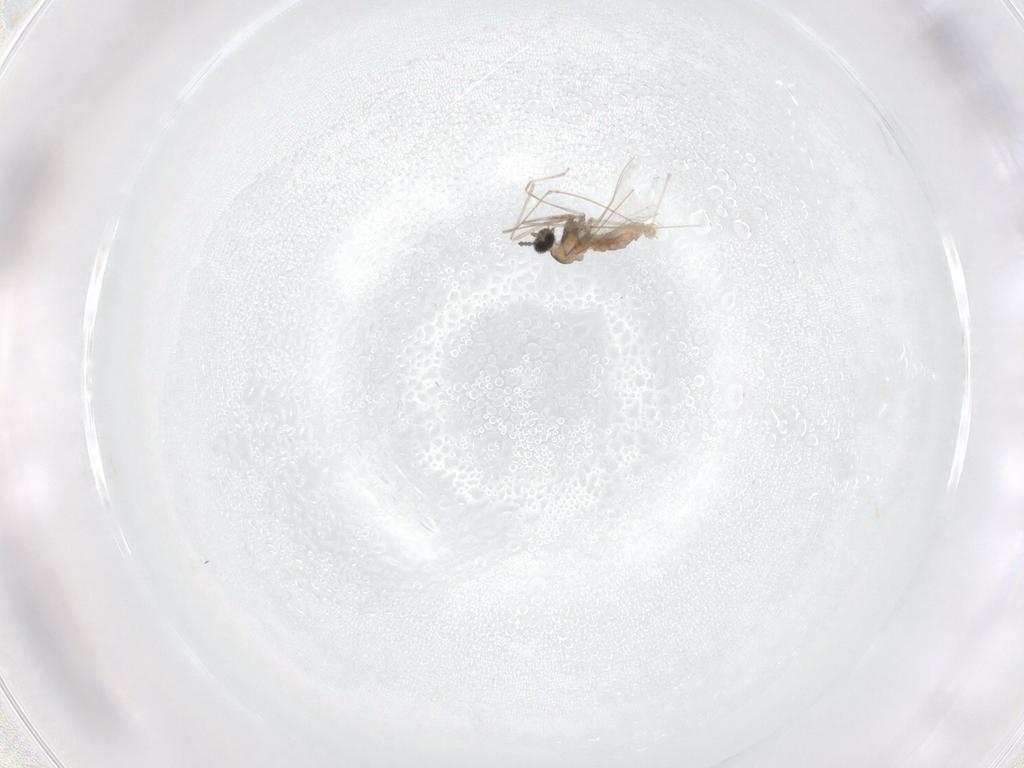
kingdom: Animalia
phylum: Arthropoda
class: Insecta
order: Diptera
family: Cecidomyiidae
